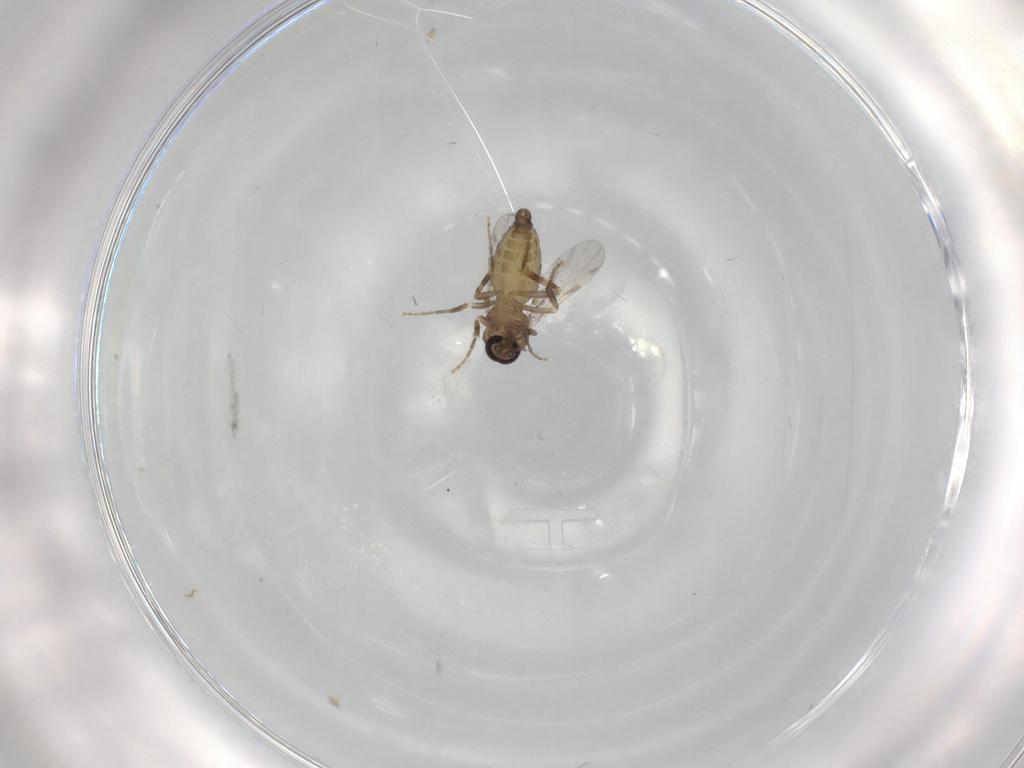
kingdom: Animalia
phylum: Arthropoda
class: Insecta
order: Diptera
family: Ceratopogonidae
